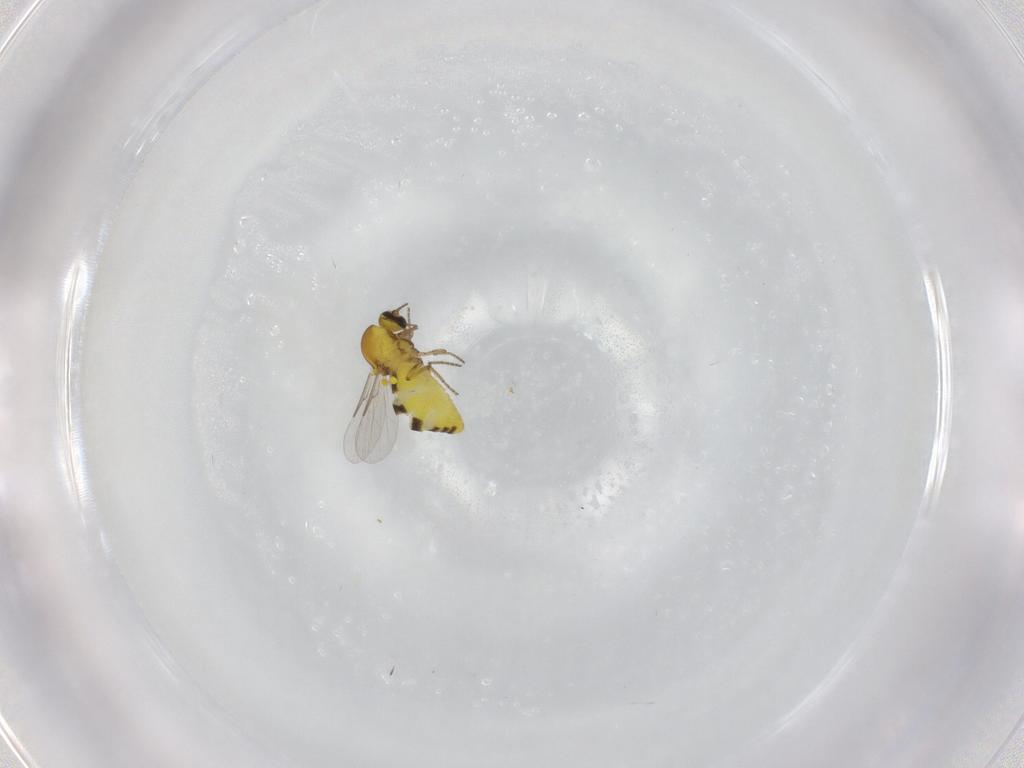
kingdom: Animalia
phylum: Arthropoda
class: Insecta
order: Diptera
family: Ceratopogonidae
